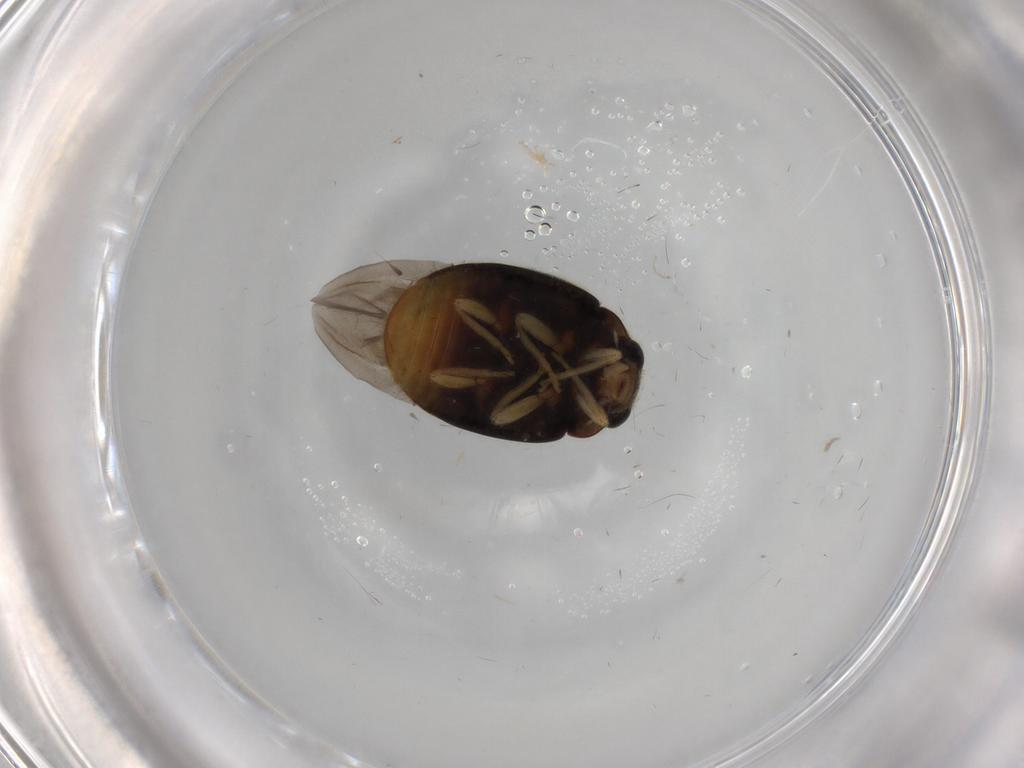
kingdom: Animalia
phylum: Arthropoda
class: Insecta
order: Coleoptera
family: Coccinellidae
